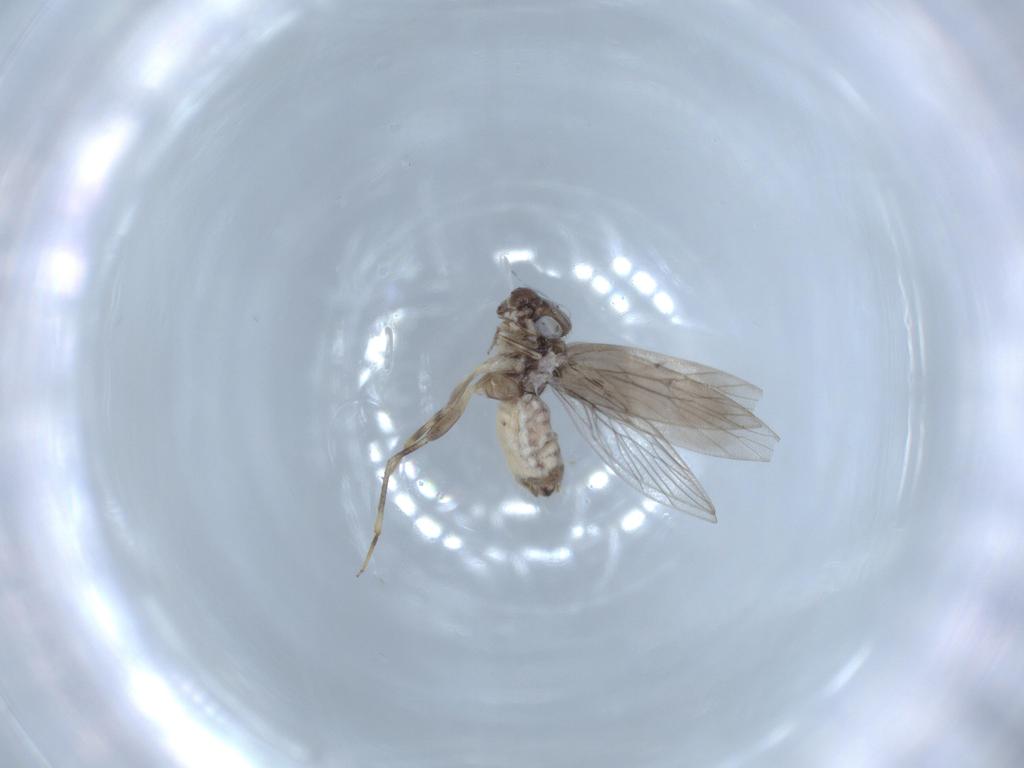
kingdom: Animalia
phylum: Arthropoda
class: Insecta
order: Psocodea
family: Lepidopsocidae
